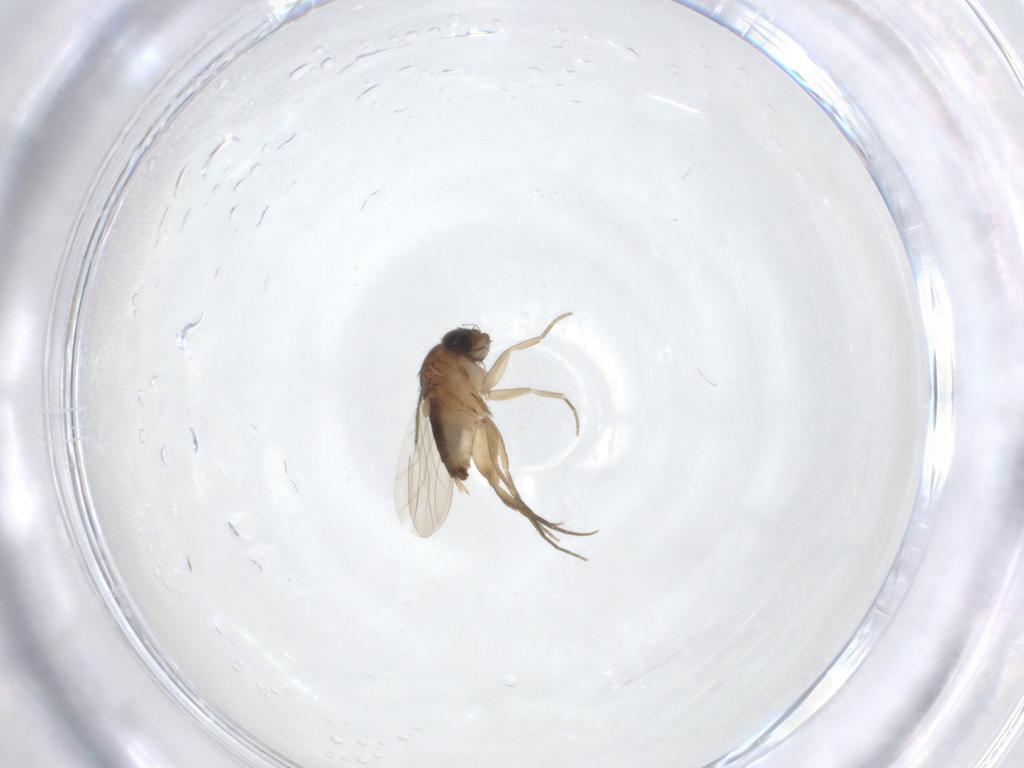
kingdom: Animalia
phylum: Arthropoda
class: Insecta
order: Diptera
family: Phoridae
